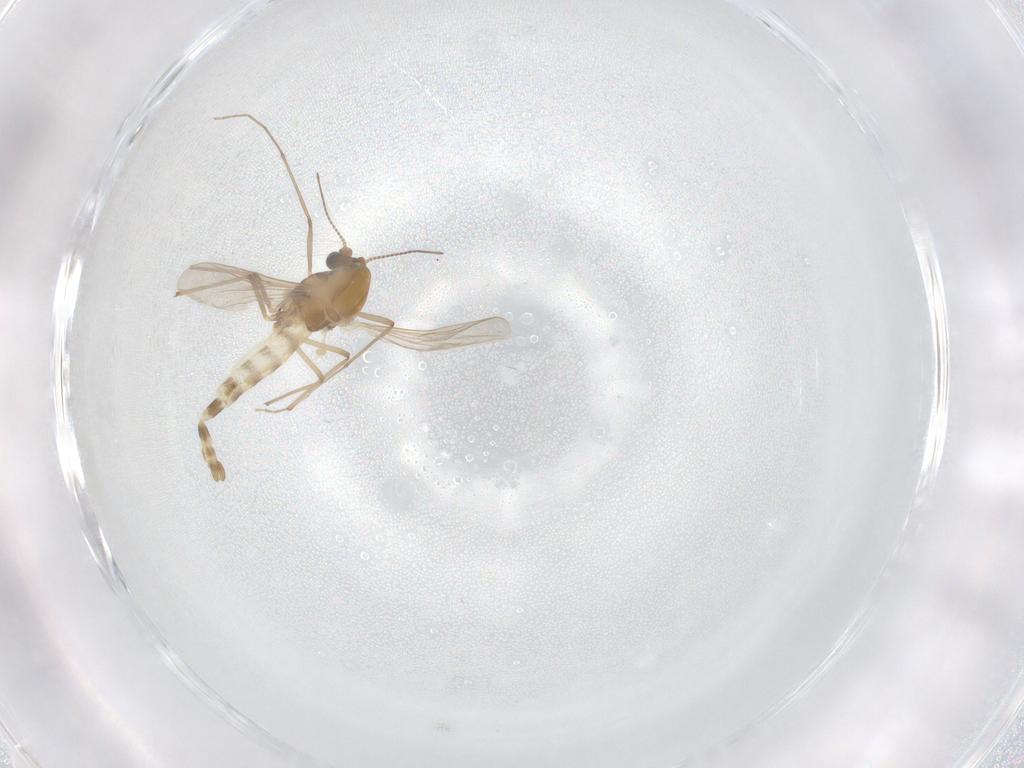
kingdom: Animalia
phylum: Arthropoda
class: Insecta
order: Diptera
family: Chironomidae
